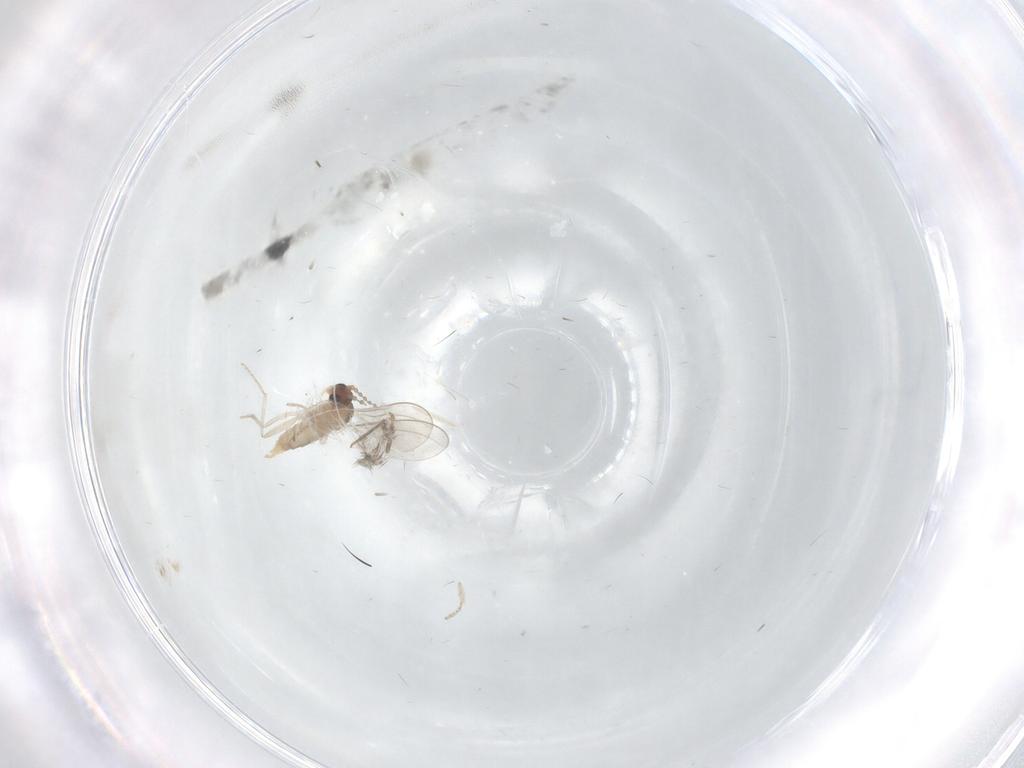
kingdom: Animalia
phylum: Arthropoda
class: Insecta
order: Diptera
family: Cecidomyiidae
